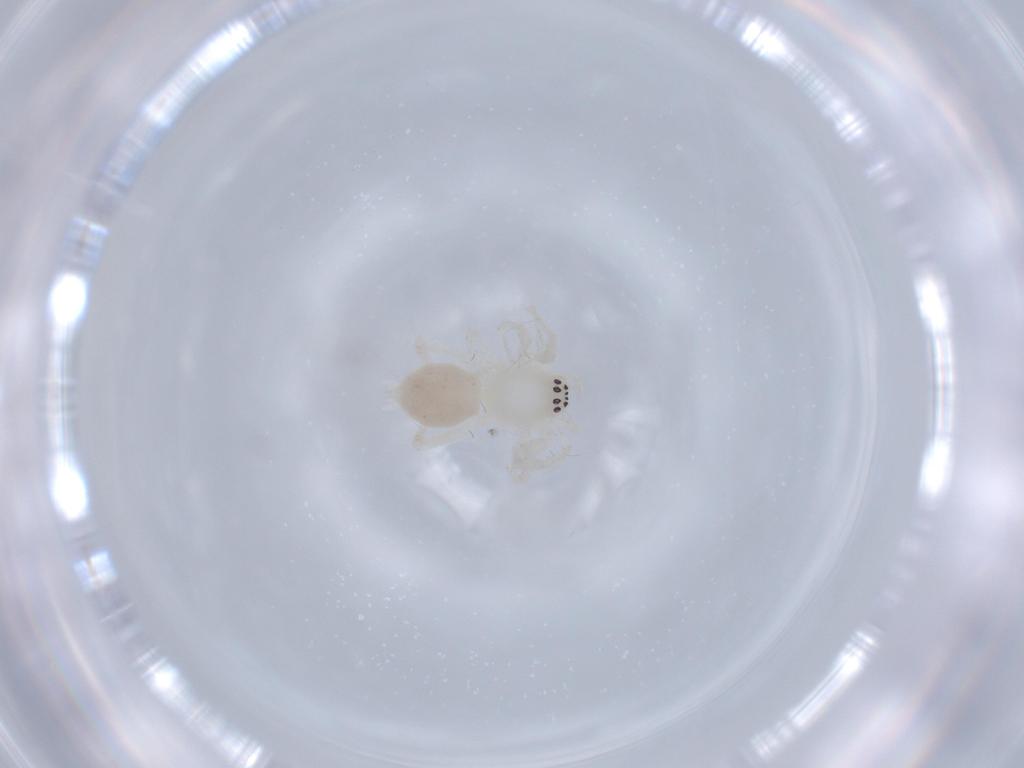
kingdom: Animalia
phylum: Arthropoda
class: Arachnida
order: Araneae
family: Anyphaenidae
